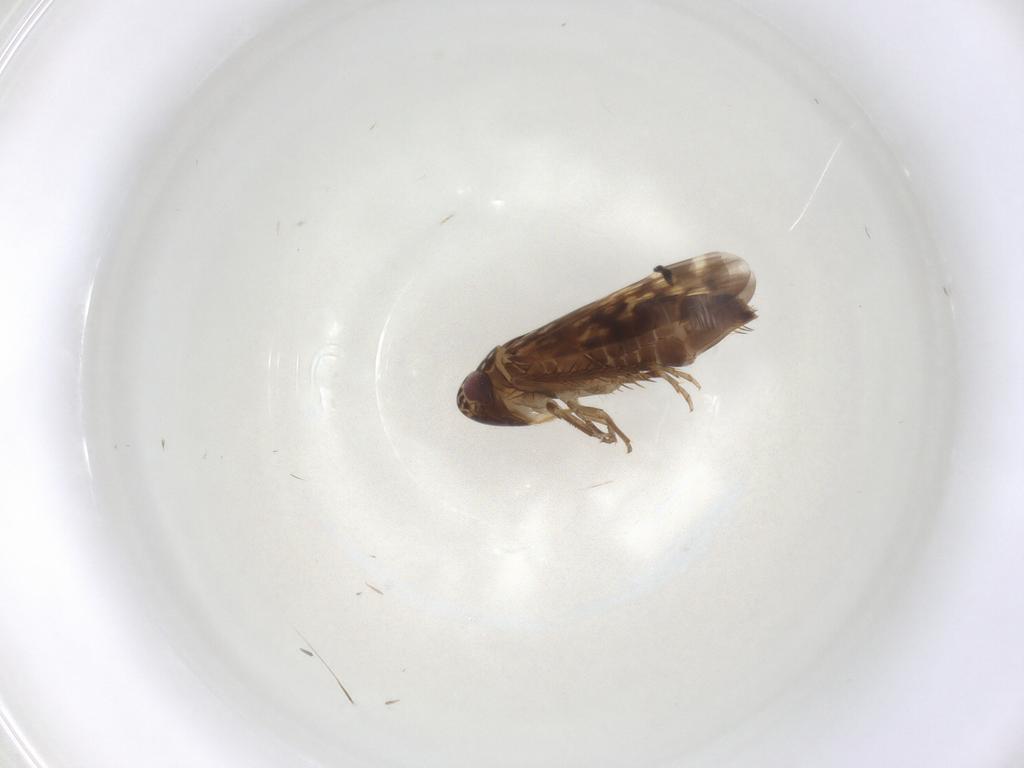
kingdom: Animalia
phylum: Arthropoda
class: Insecta
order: Hemiptera
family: Cicadellidae
